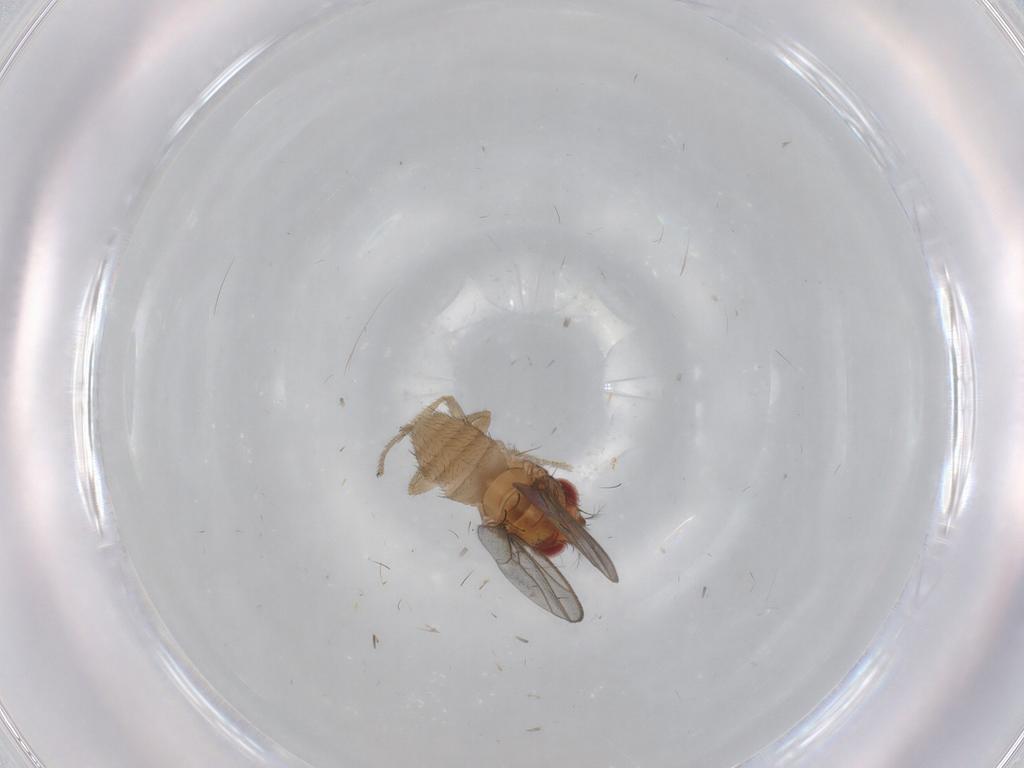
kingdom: Animalia
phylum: Arthropoda
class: Insecta
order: Diptera
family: Drosophilidae
